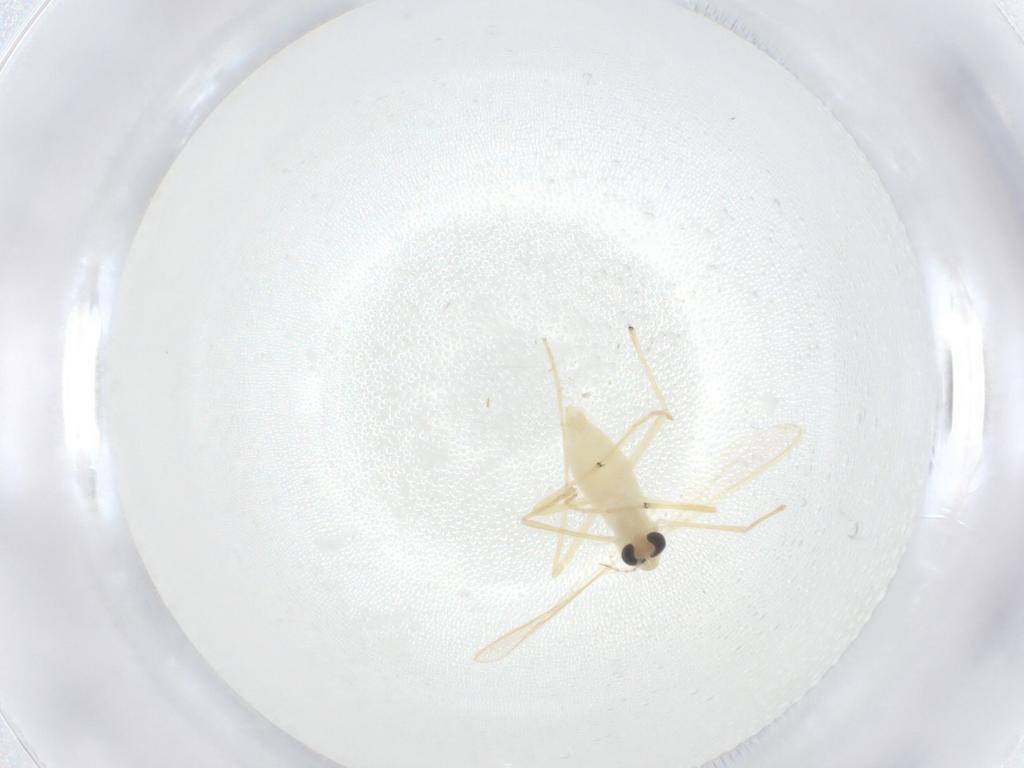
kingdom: Animalia
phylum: Arthropoda
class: Insecta
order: Diptera
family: Chironomidae
